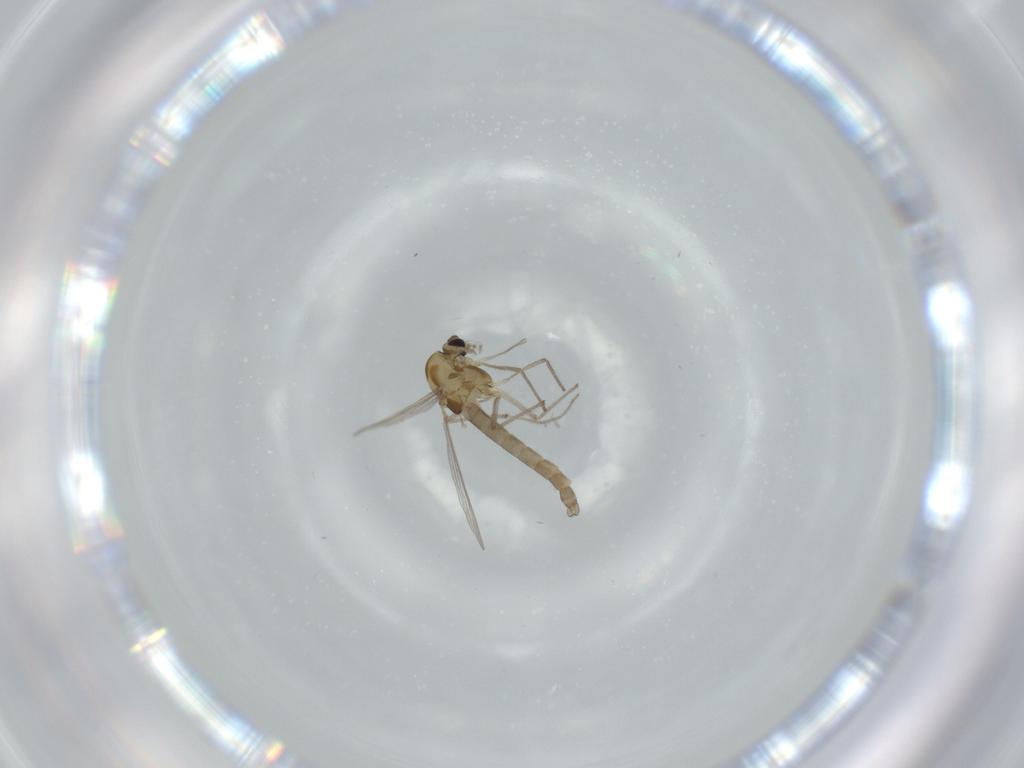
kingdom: Animalia
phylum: Arthropoda
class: Insecta
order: Diptera
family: Chironomidae
